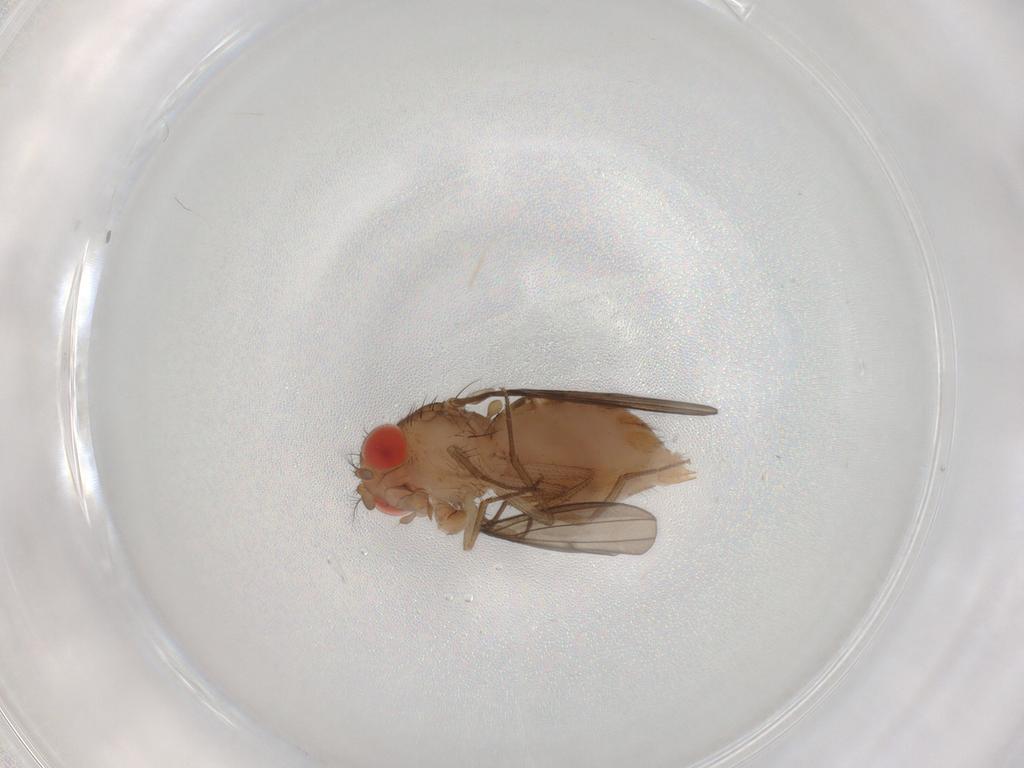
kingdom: Animalia
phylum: Arthropoda
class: Insecta
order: Diptera
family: Drosophilidae
